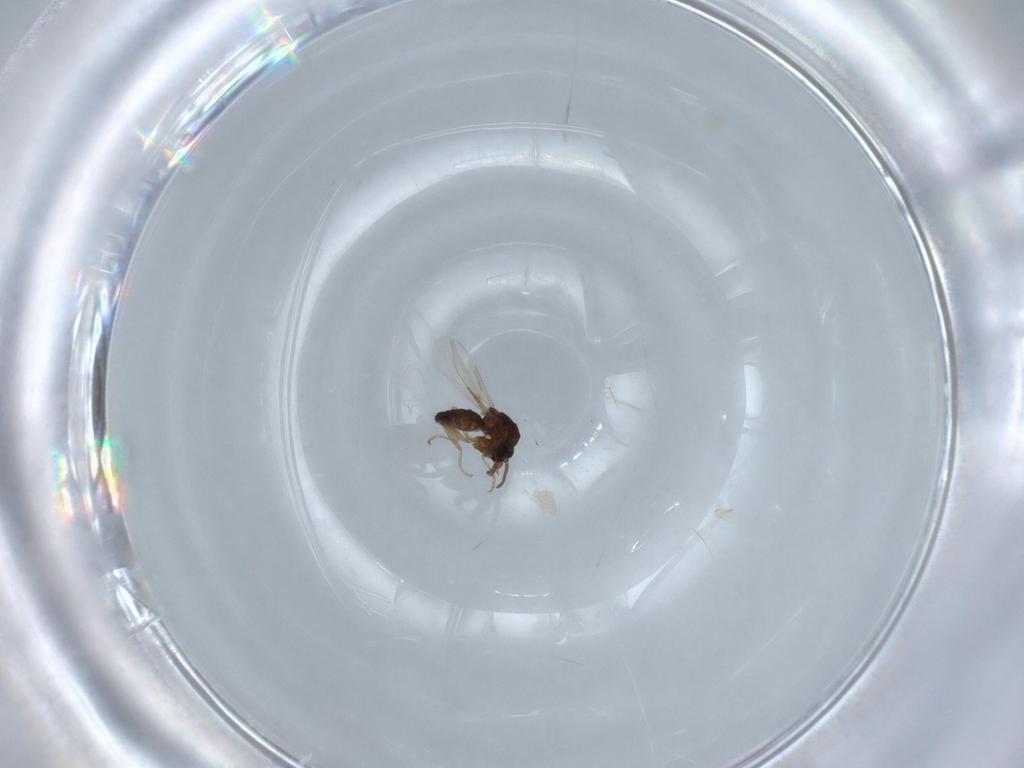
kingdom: Animalia
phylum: Arthropoda
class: Insecta
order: Diptera
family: Ceratopogonidae
